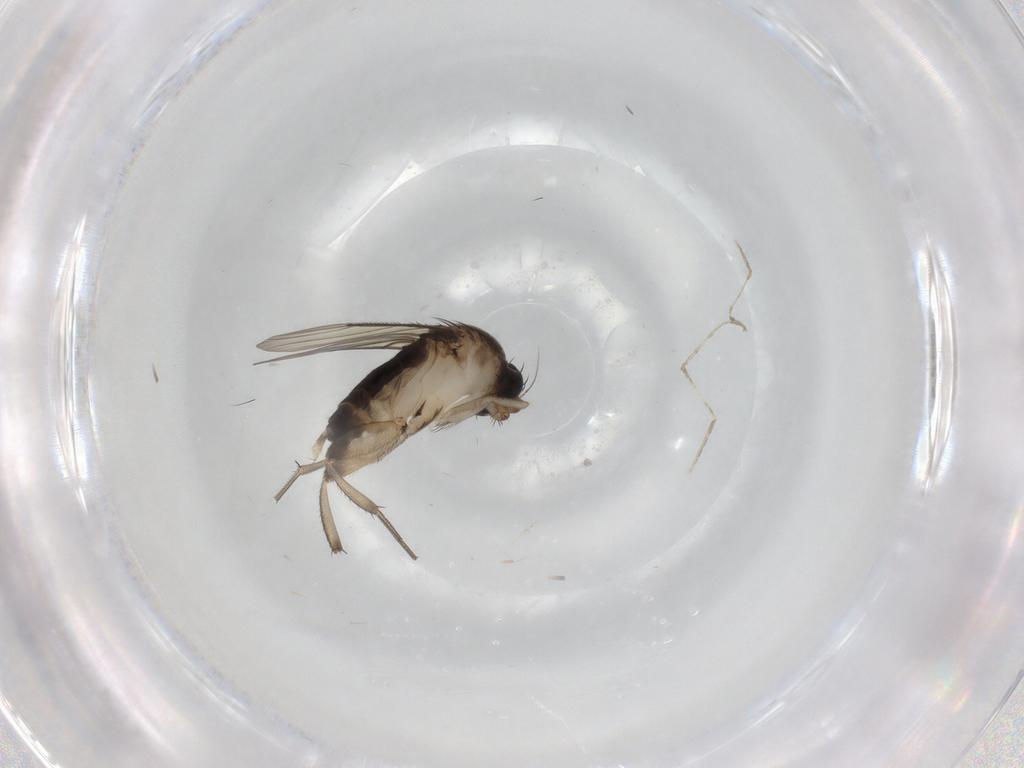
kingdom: Animalia
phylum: Arthropoda
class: Insecta
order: Diptera
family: Phoridae
